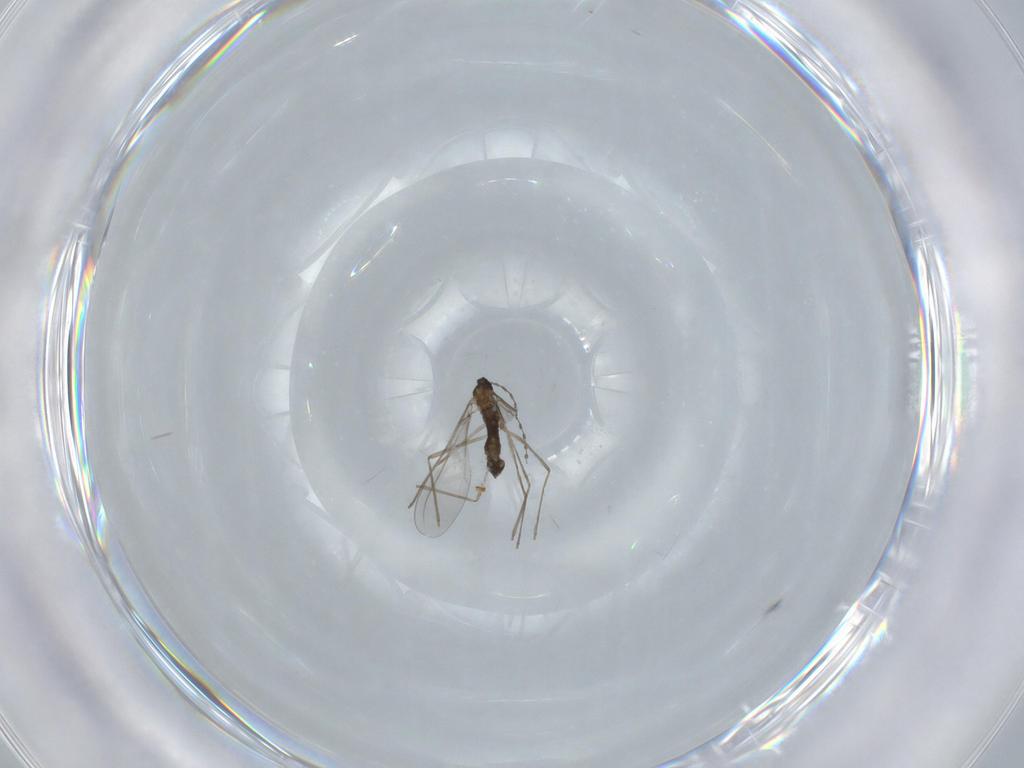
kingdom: Animalia
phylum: Arthropoda
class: Insecta
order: Diptera
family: Cecidomyiidae
